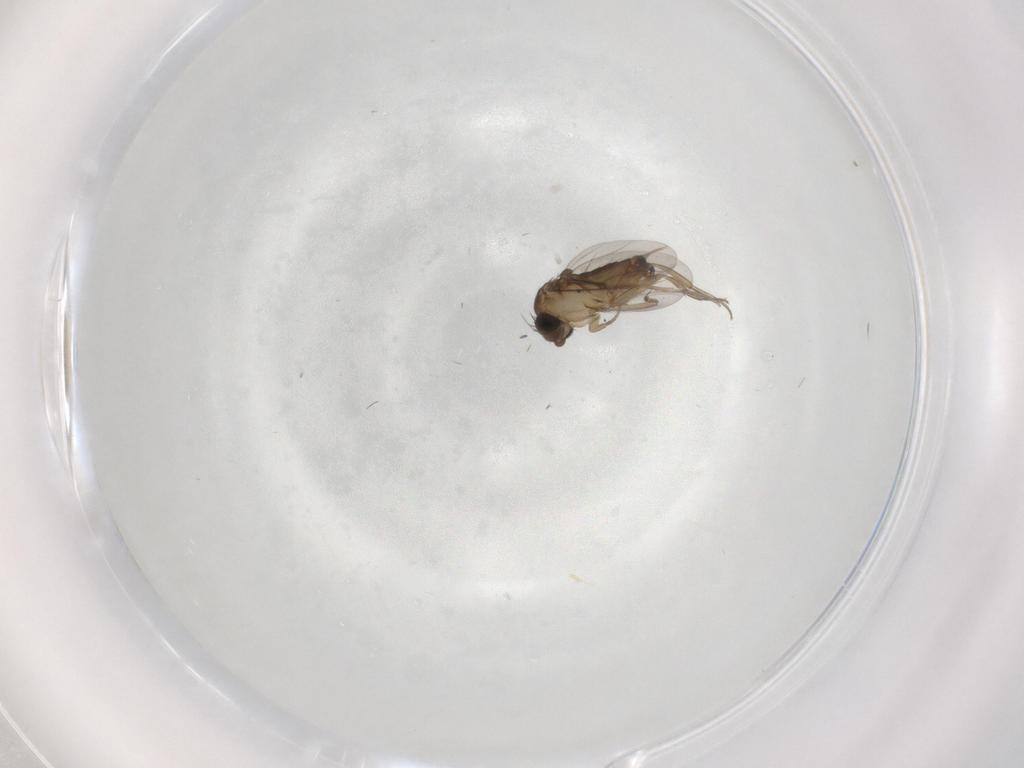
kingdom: Animalia
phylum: Arthropoda
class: Insecta
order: Diptera
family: Phoridae
